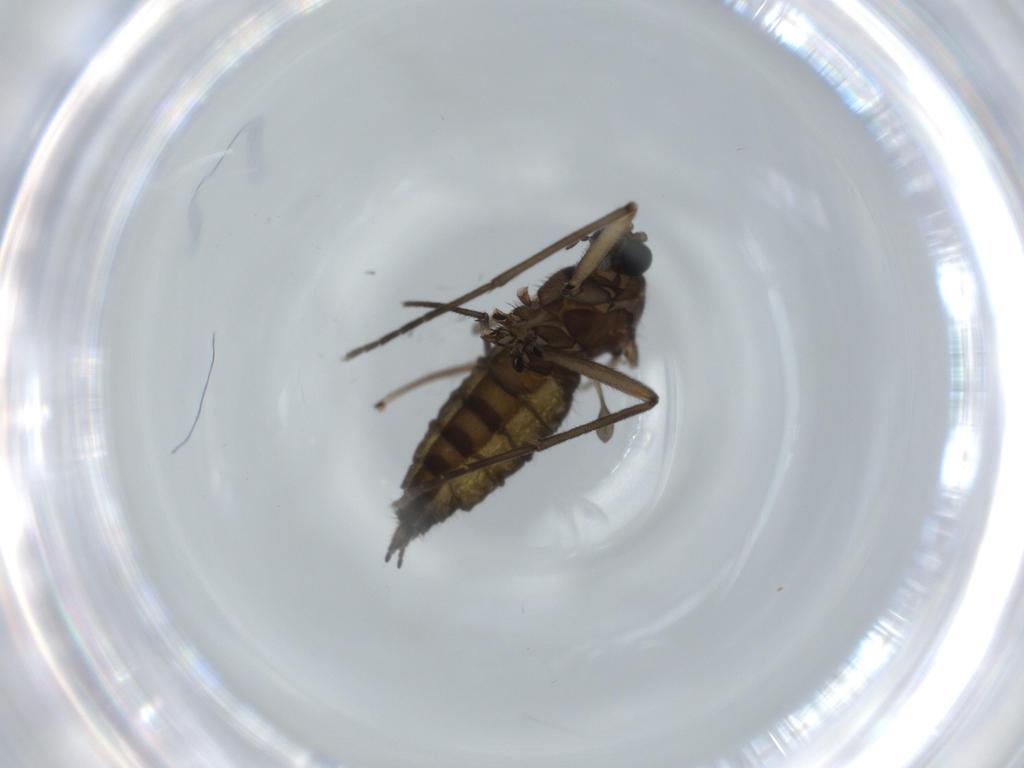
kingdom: Animalia
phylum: Arthropoda
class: Insecta
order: Diptera
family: Sciaridae
